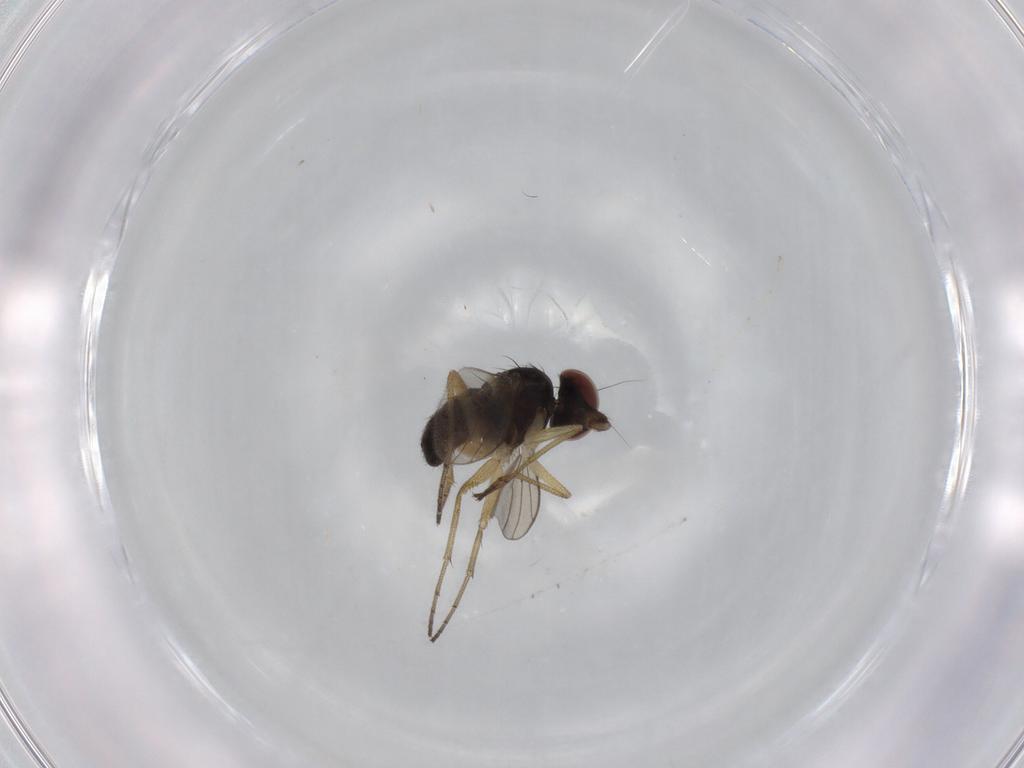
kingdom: Animalia
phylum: Arthropoda
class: Insecta
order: Diptera
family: Dolichopodidae
